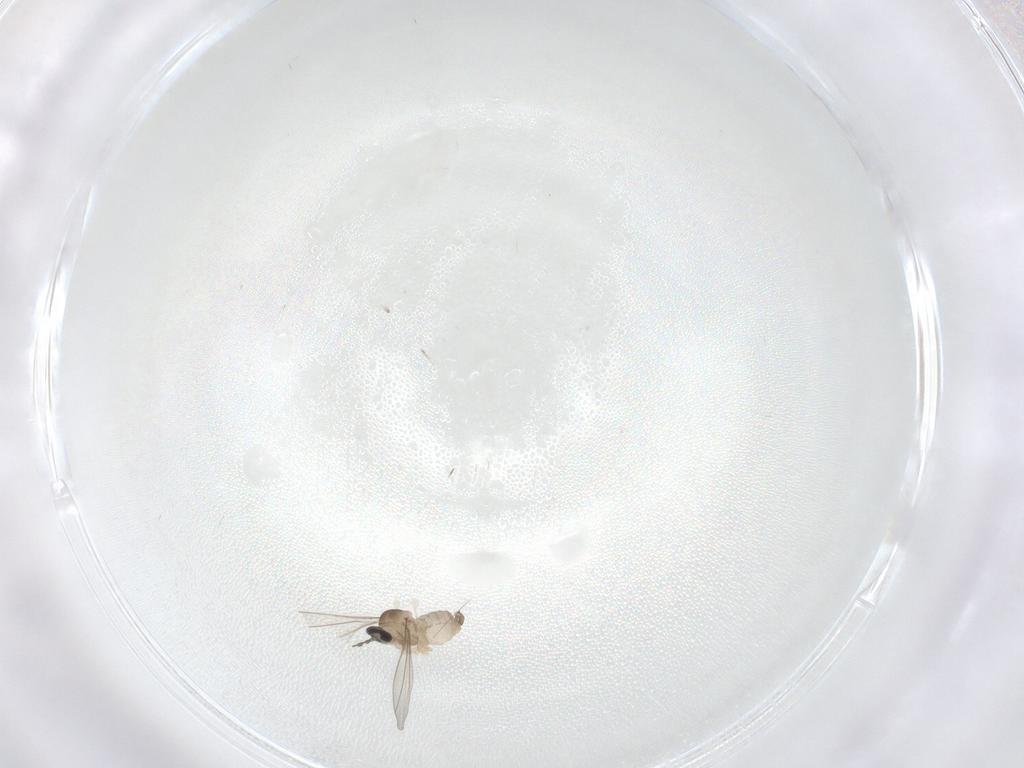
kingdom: Animalia
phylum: Arthropoda
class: Insecta
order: Diptera
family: Cecidomyiidae
